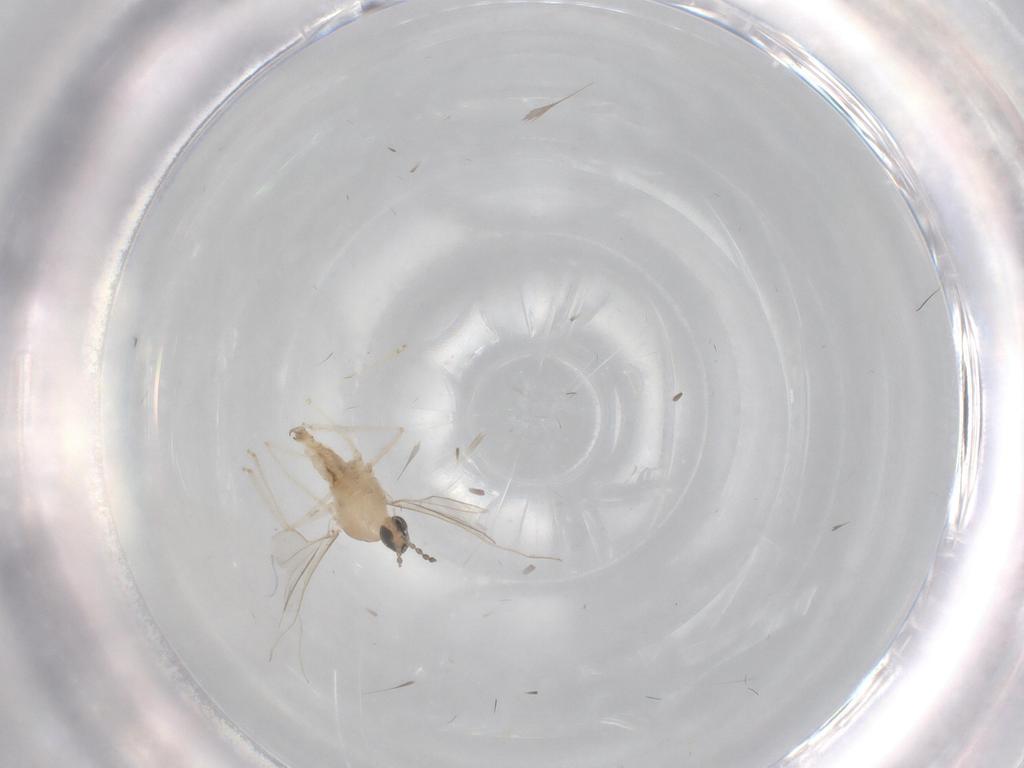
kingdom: Animalia
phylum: Arthropoda
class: Insecta
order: Diptera
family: Cecidomyiidae
